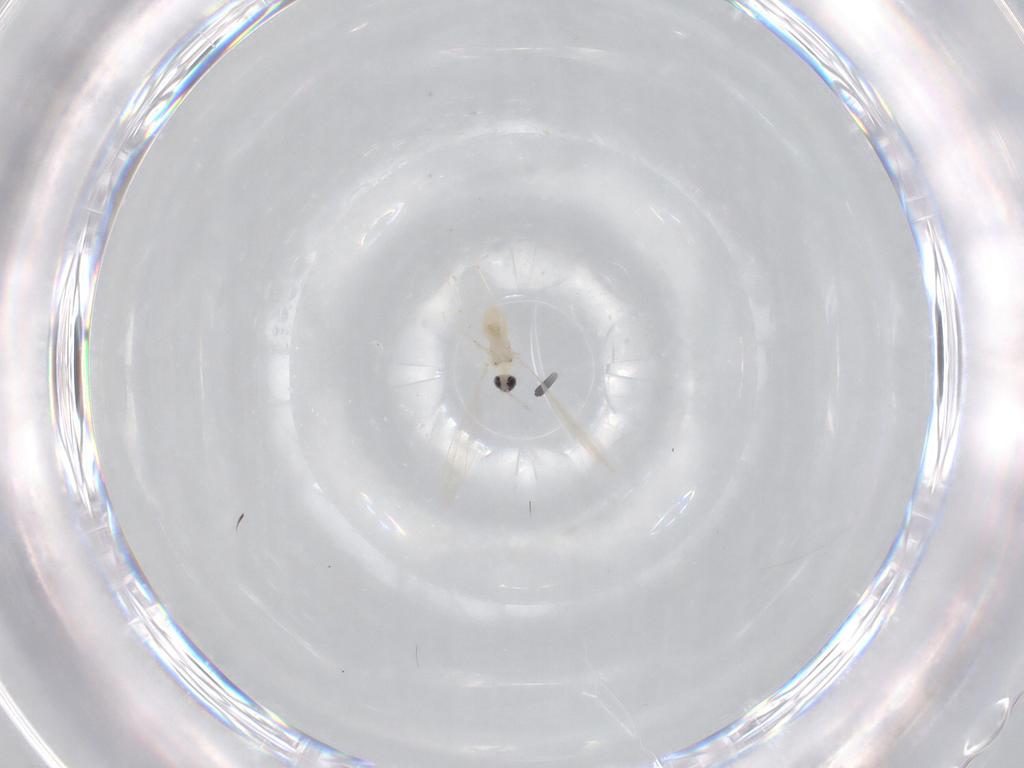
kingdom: Animalia
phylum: Arthropoda
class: Insecta
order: Diptera
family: Cecidomyiidae
